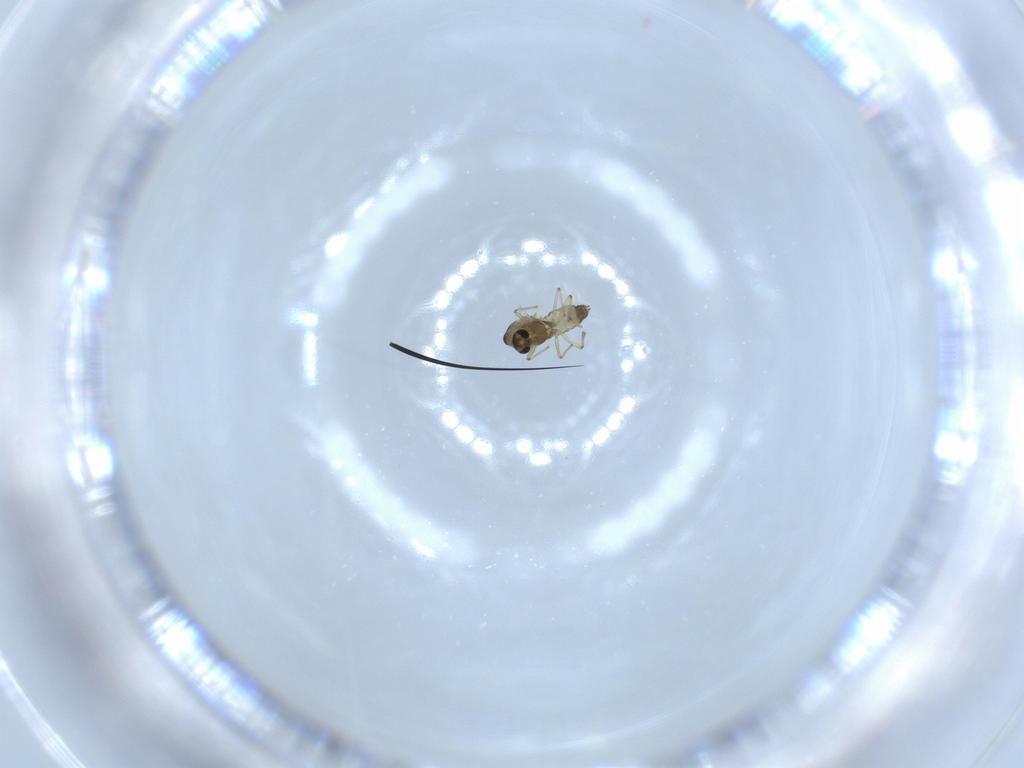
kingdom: Animalia
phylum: Arthropoda
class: Insecta
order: Diptera
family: Chironomidae
